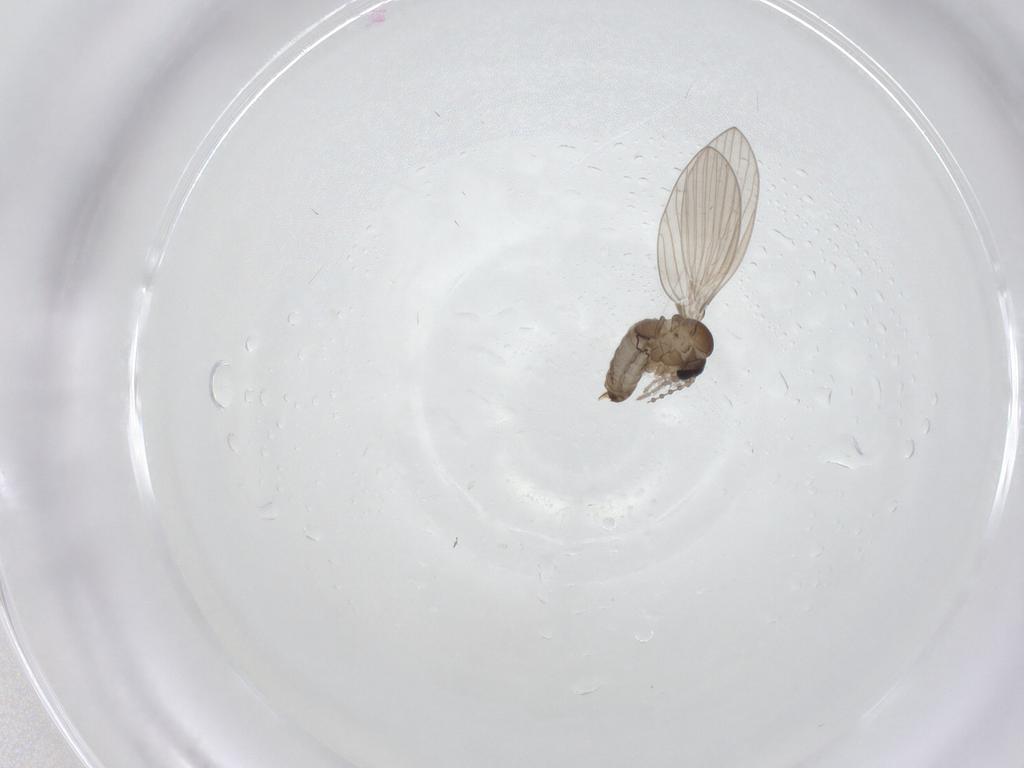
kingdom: Animalia
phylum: Arthropoda
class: Insecta
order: Diptera
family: Psychodidae
